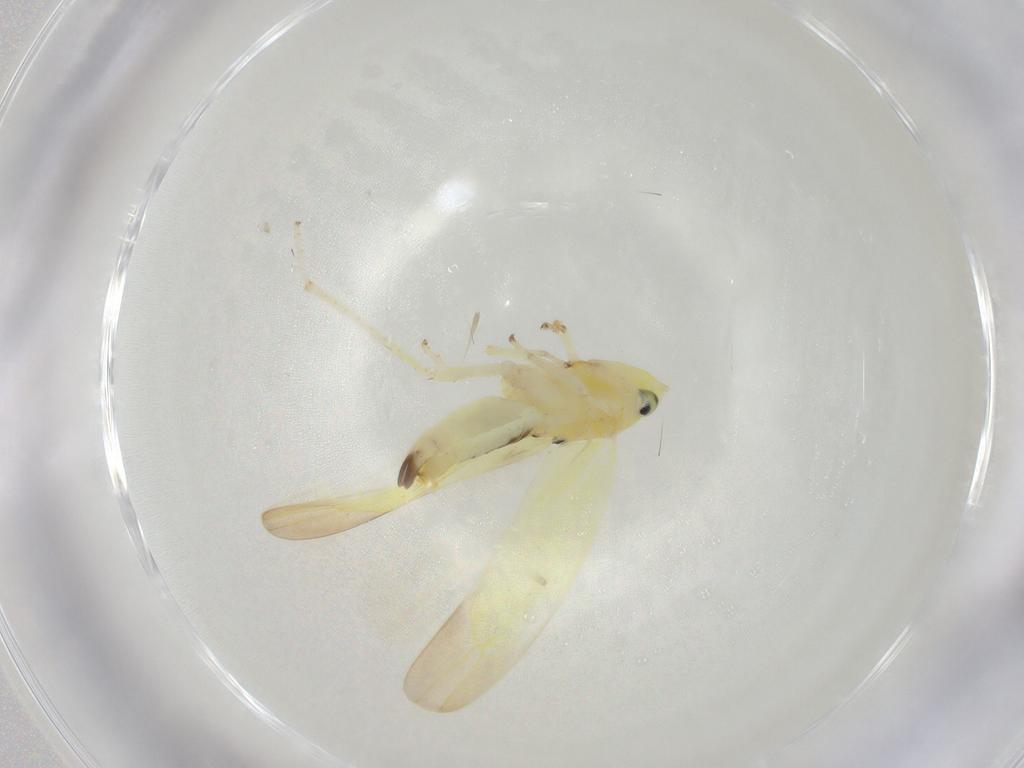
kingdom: Animalia
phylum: Arthropoda
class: Insecta
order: Hemiptera
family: Cicadellidae
